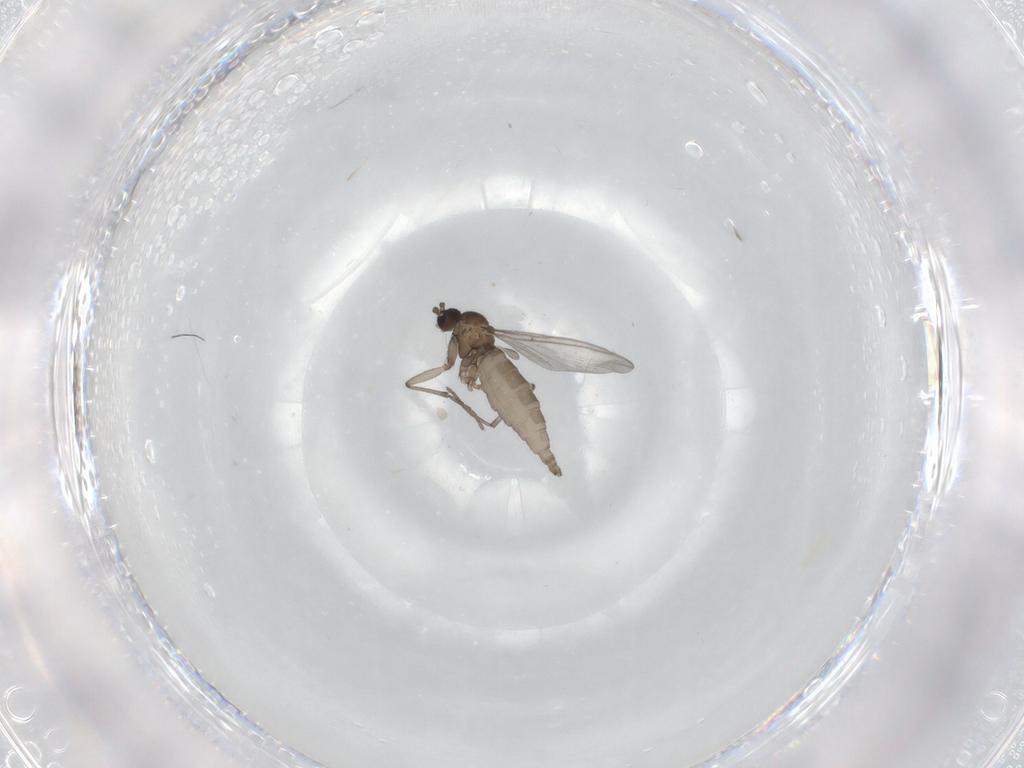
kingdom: Animalia
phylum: Arthropoda
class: Insecta
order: Diptera
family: Sciaridae
